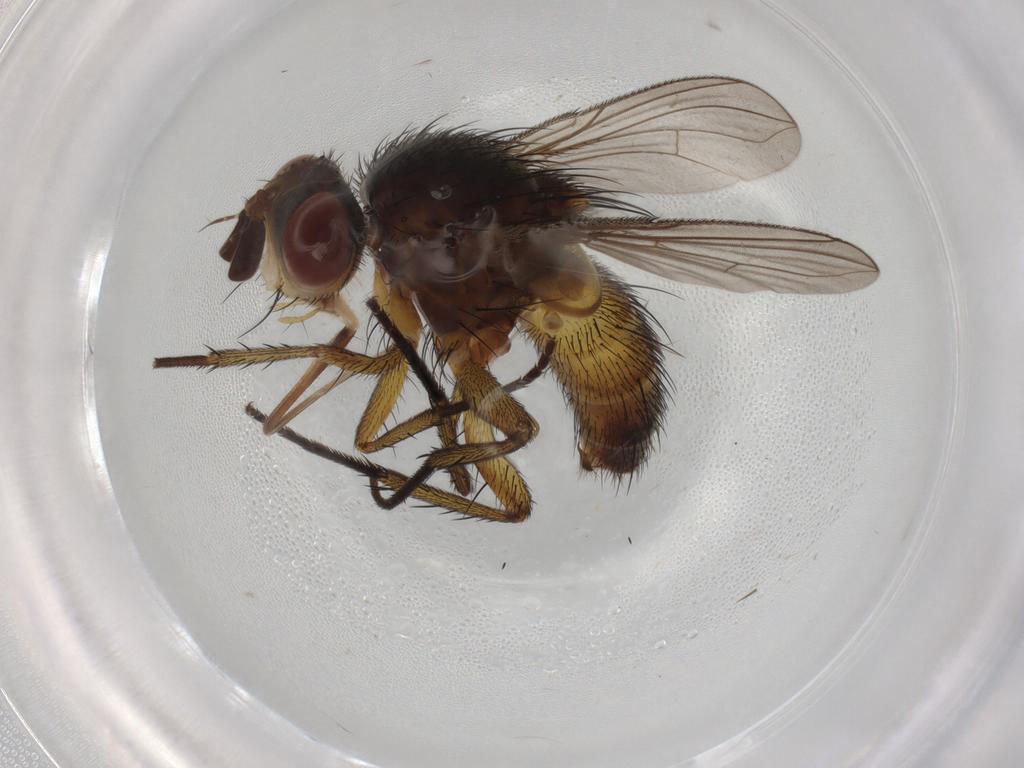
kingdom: Animalia
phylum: Arthropoda
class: Insecta
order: Diptera
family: Tachinidae
